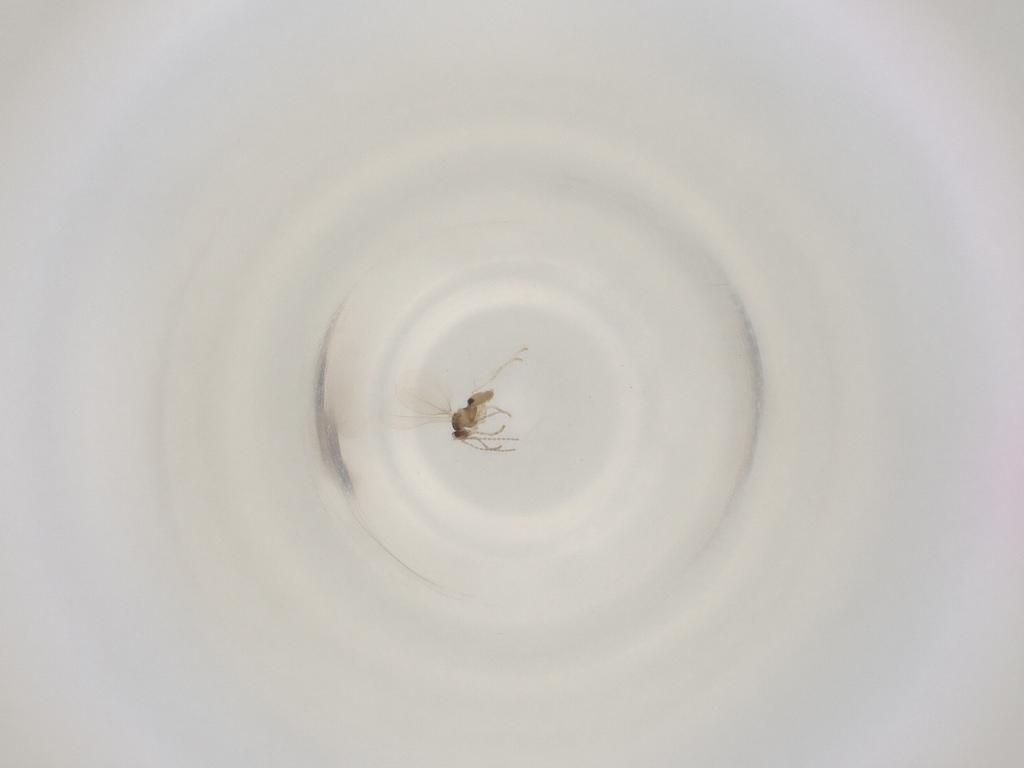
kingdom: Animalia
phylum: Arthropoda
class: Insecta
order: Diptera
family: Cecidomyiidae
